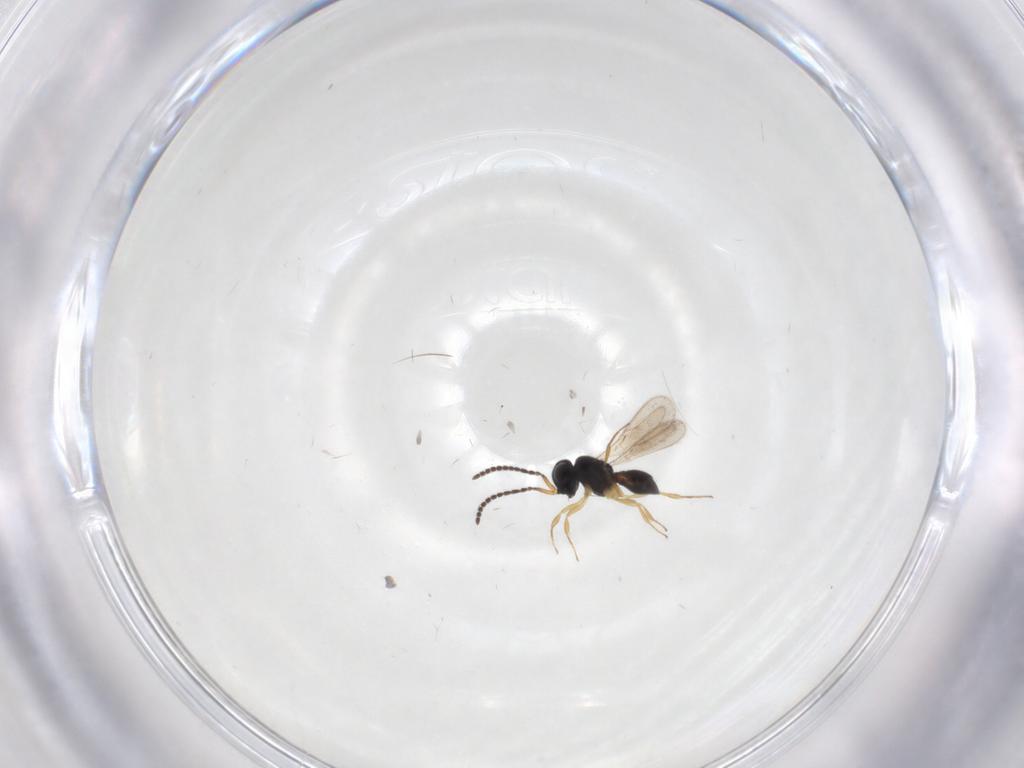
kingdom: Animalia
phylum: Arthropoda
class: Insecta
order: Hymenoptera
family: Scelionidae
